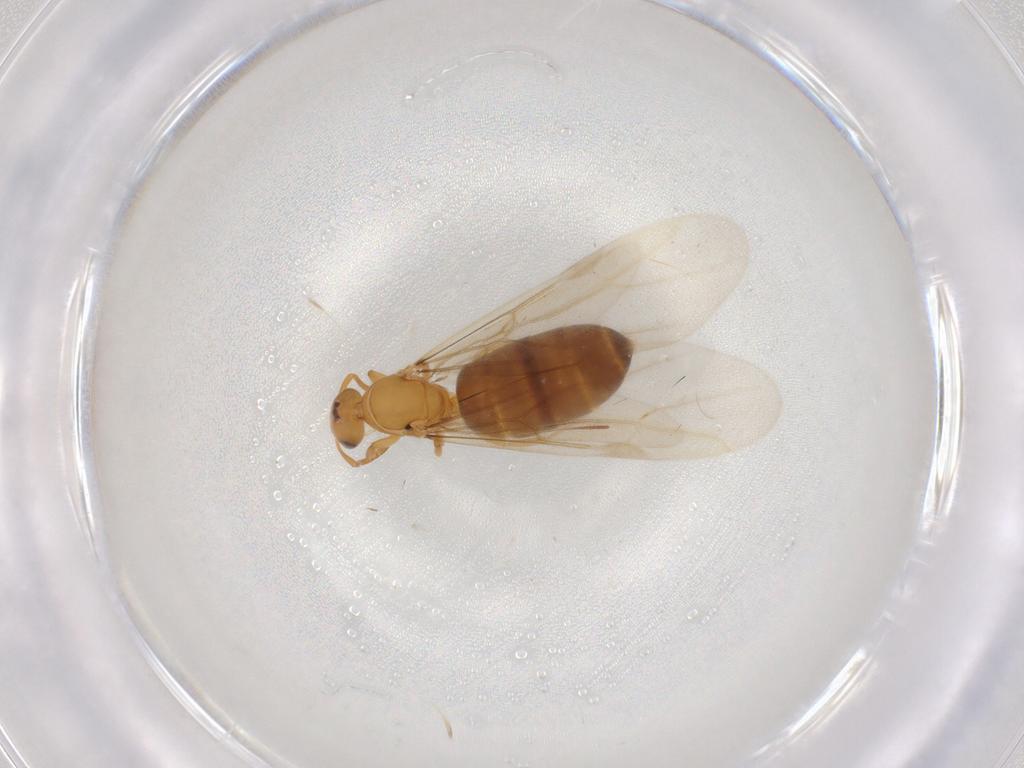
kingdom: Animalia
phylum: Arthropoda
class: Insecta
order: Hymenoptera
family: Formicidae
